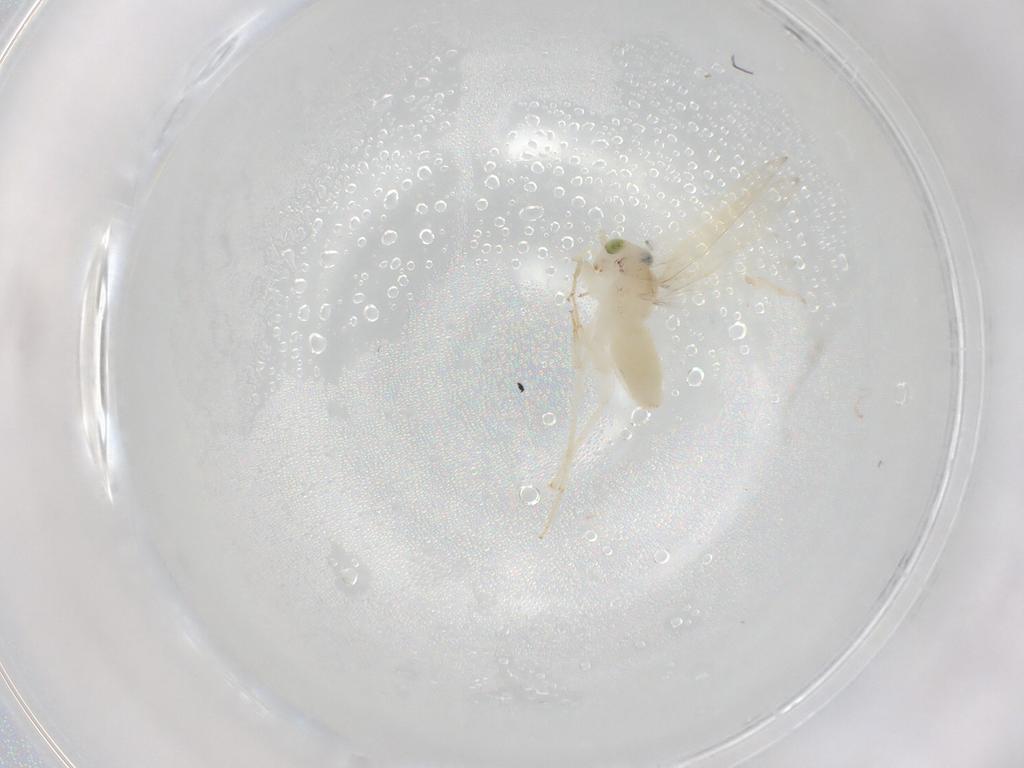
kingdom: Animalia
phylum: Arthropoda
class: Insecta
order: Psocodea
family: Lepidopsocidae
